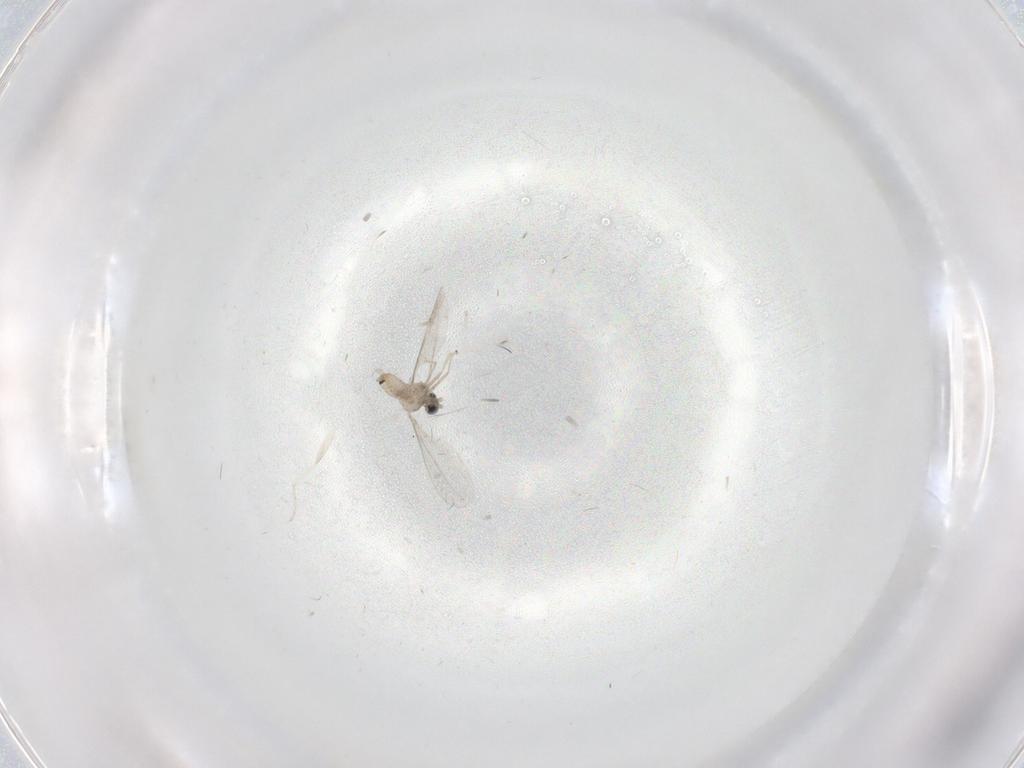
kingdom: Animalia
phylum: Arthropoda
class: Insecta
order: Diptera
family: Cecidomyiidae
